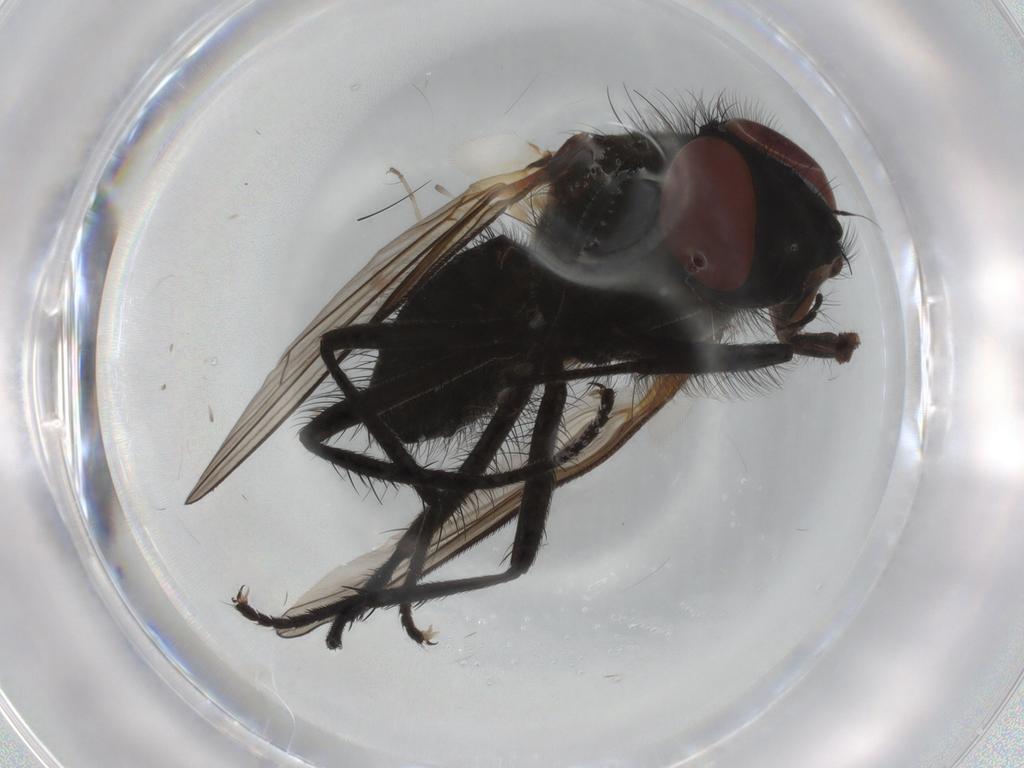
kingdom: Animalia
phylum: Arthropoda
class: Insecta
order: Diptera
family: Anthomyiidae
